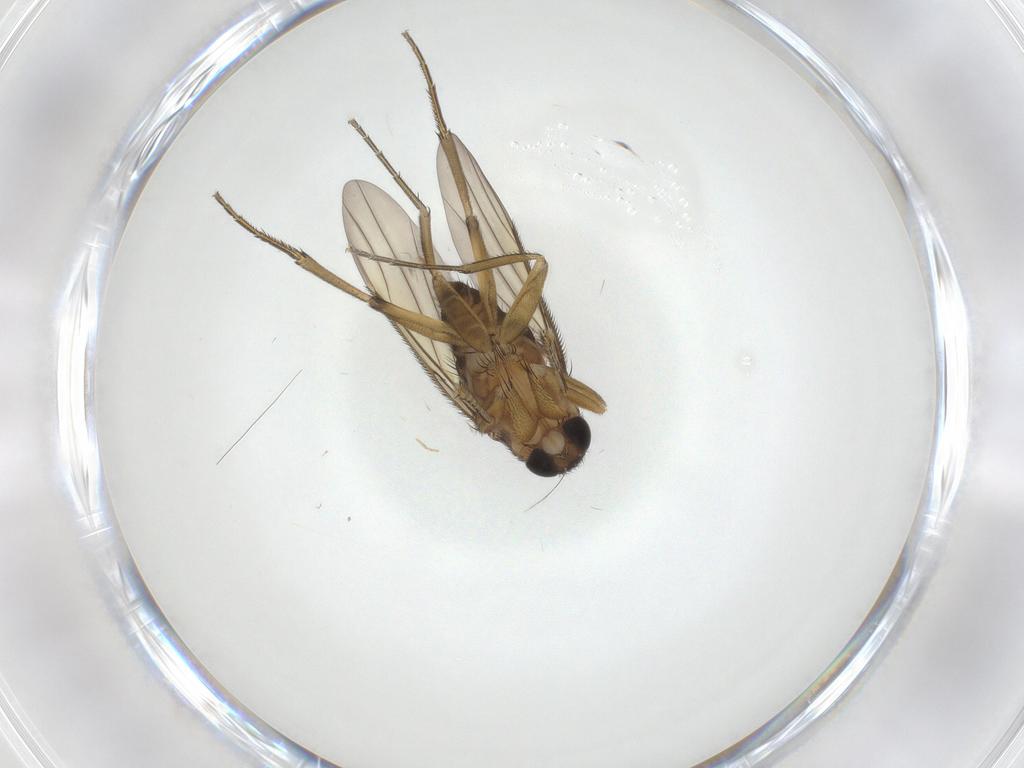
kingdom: Animalia
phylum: Arthropoda
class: Insecta
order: Diptera
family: Phoridae
